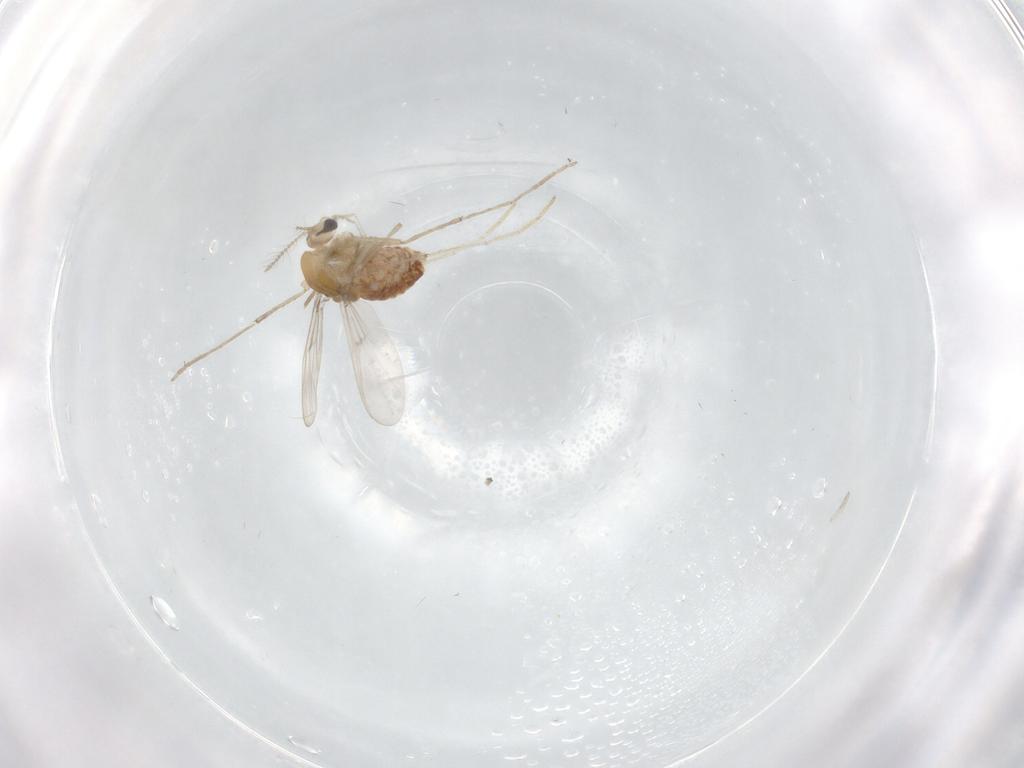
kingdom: Animalia
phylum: Arthropoda
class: Insecta
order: Diptera
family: Chironomidae
